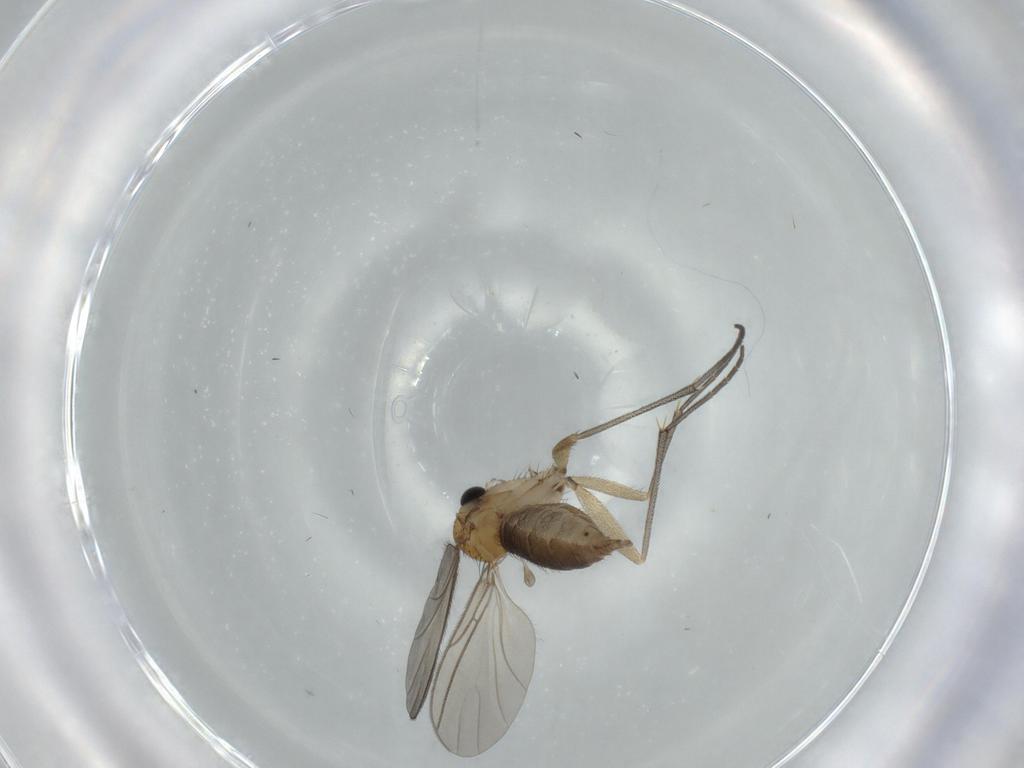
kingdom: Animalia
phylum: Arthropoda
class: Insecta
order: Diptera
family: Sciaridae
